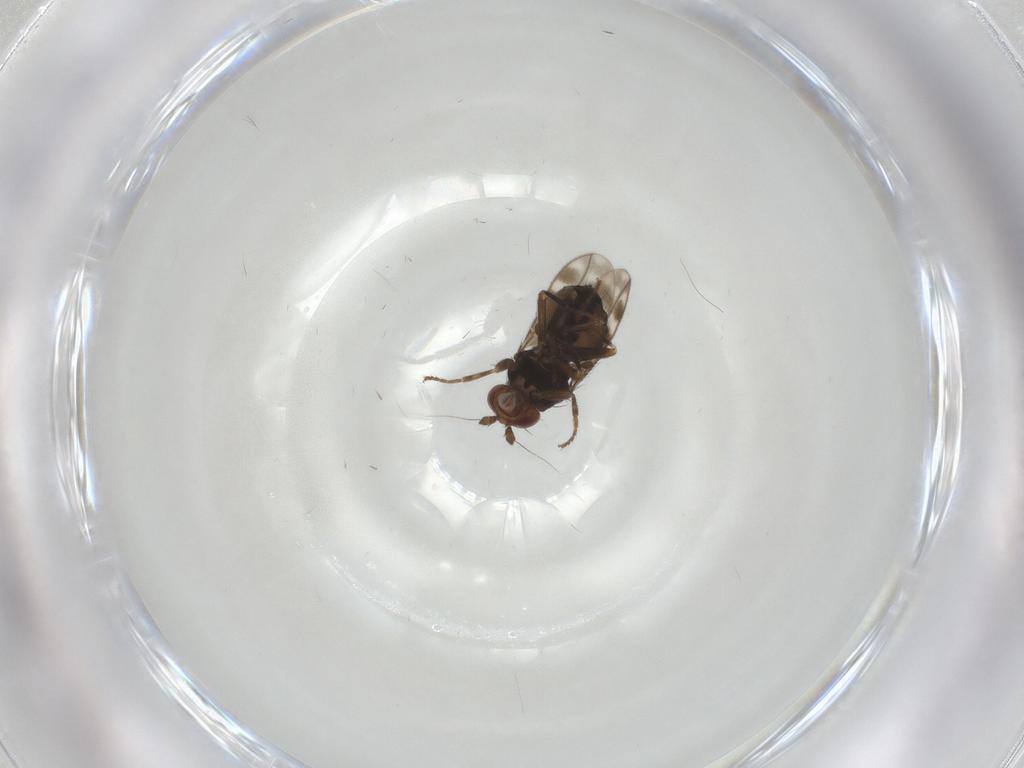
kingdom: Animalia
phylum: Arthropoda
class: Insecta
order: Diptera
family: Sphaeroceridae
